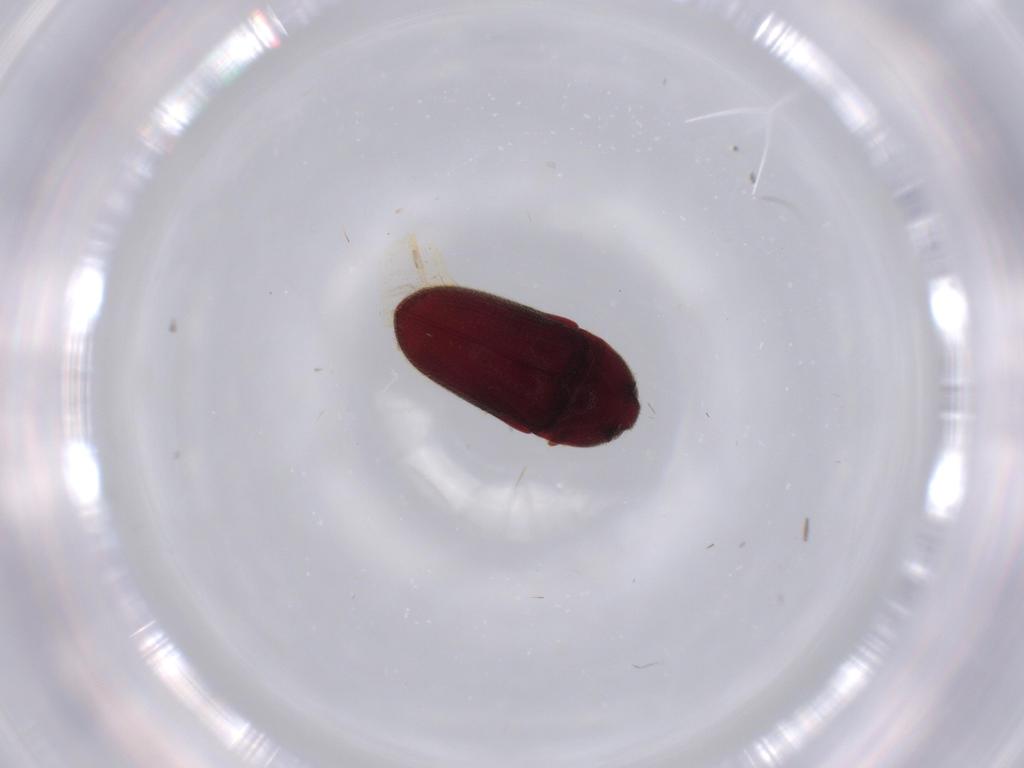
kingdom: Animalia
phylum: Arthropoda
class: Insecta
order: Coleoptera
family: Throscidae
